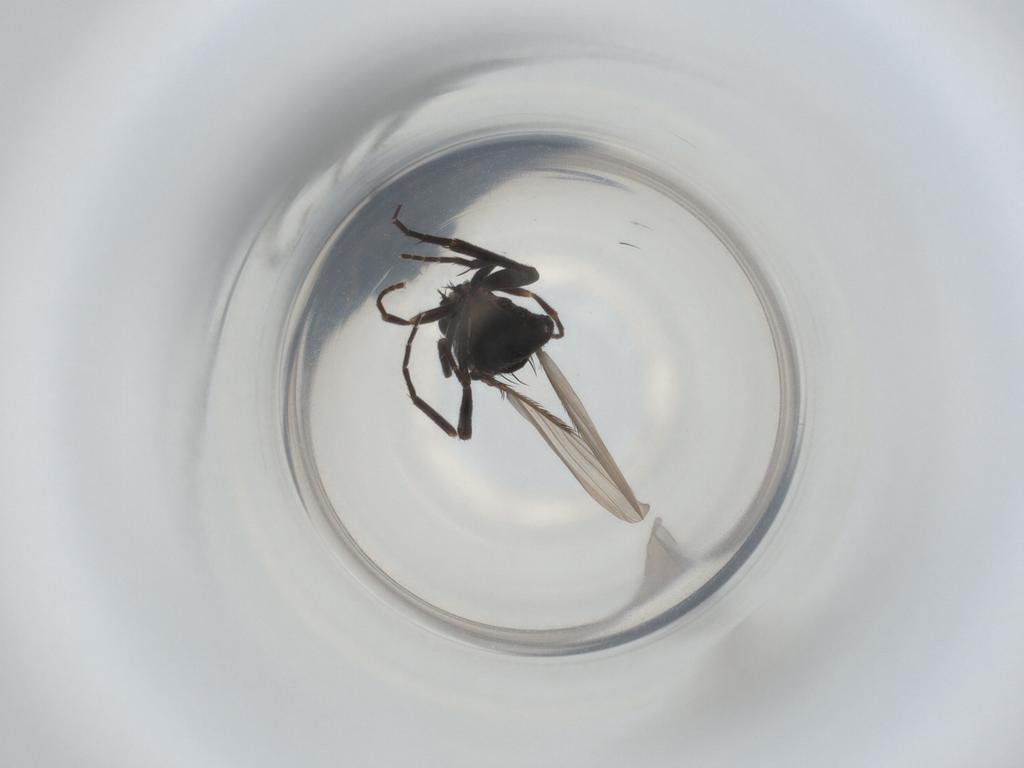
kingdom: Animalia
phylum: Arthropoda
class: Insecta
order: Diptera
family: Phoridae
